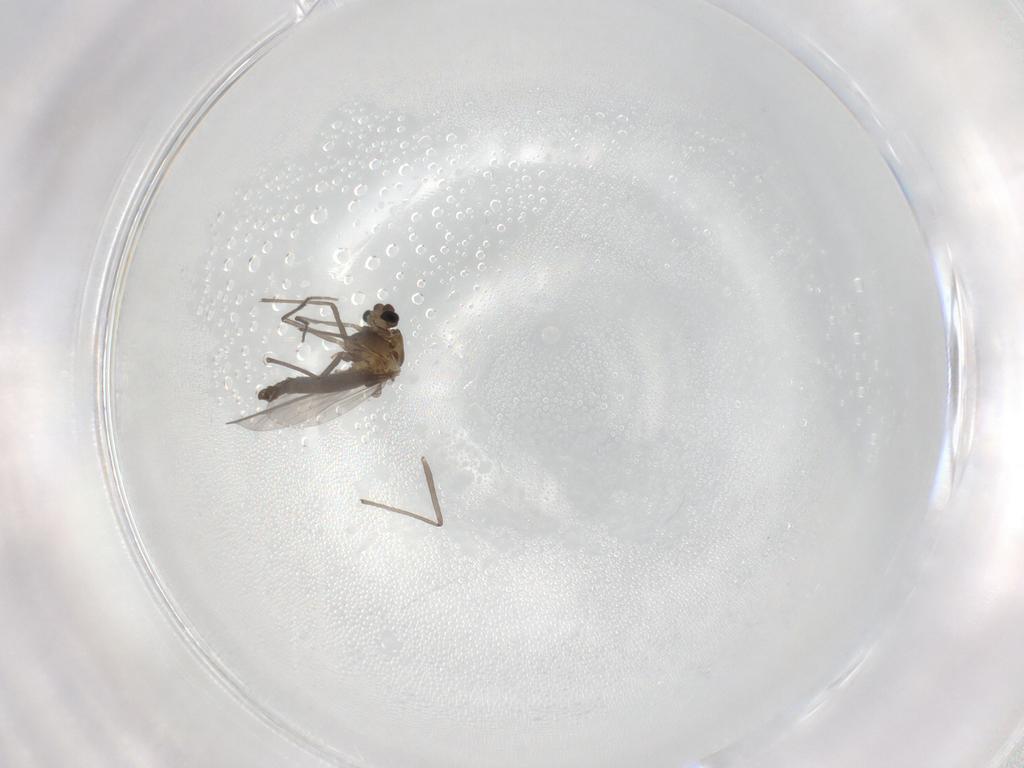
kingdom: Animalia
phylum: Arthropoda
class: Insecta
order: Diptera
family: Chironomidae
